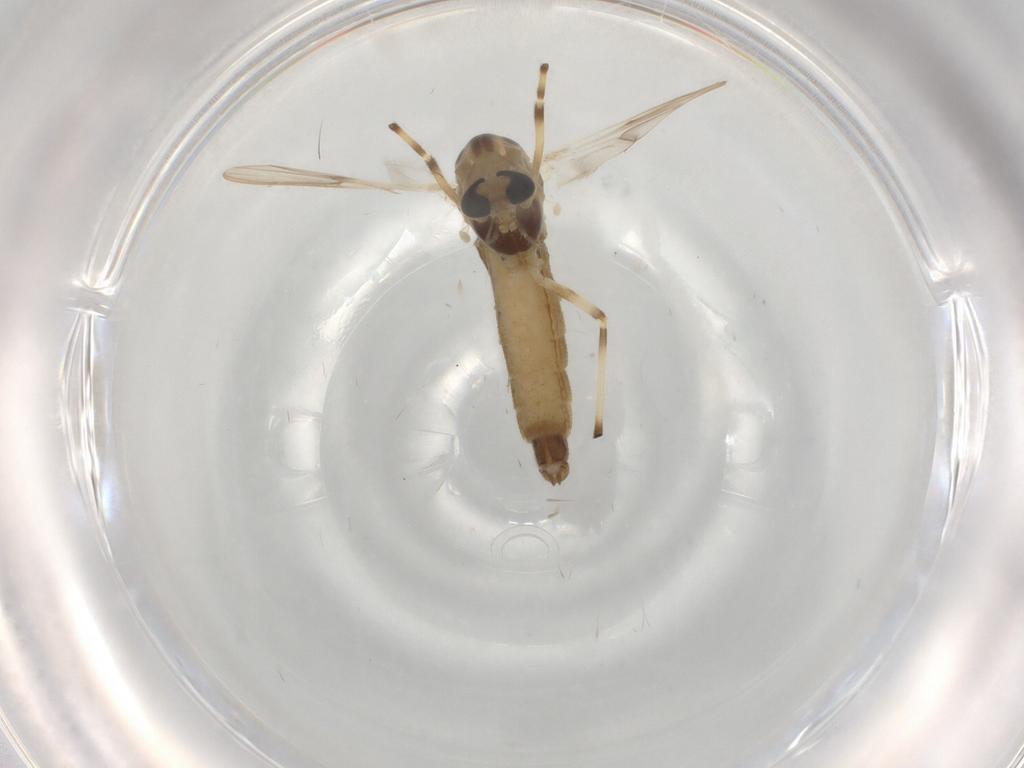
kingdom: Animalia
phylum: Arthropoda
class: Insecta
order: Diptera
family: Chironomidae
